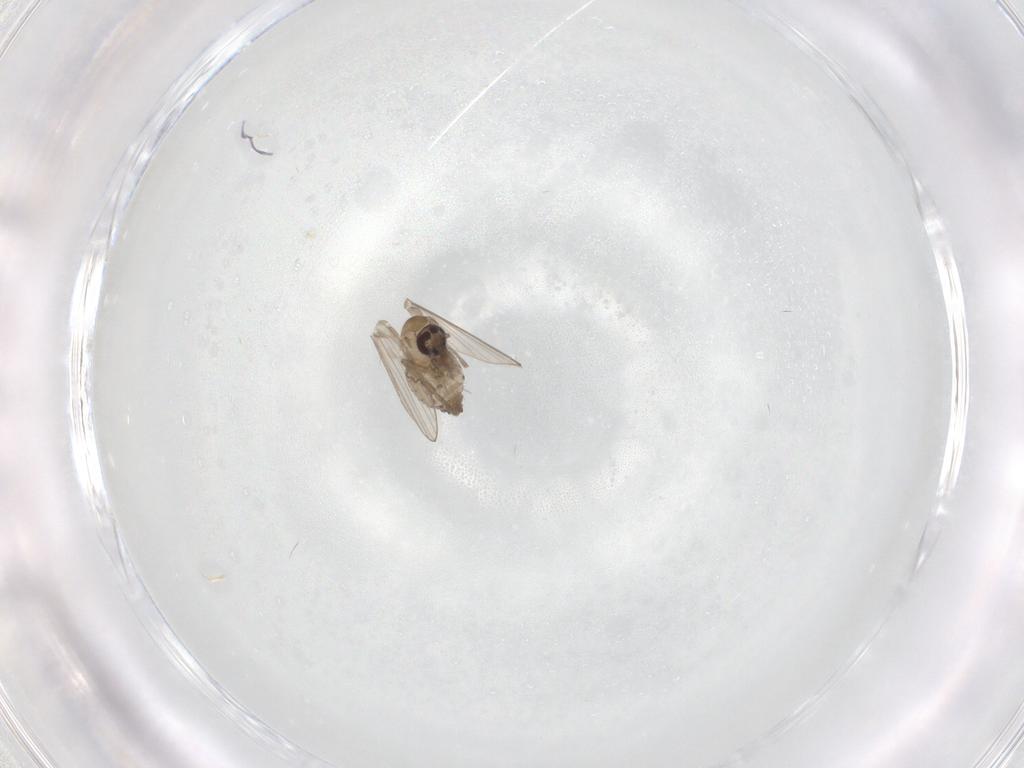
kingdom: Animalia
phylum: Arthropoda
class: Insecta
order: Diptera
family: Psychodidae
